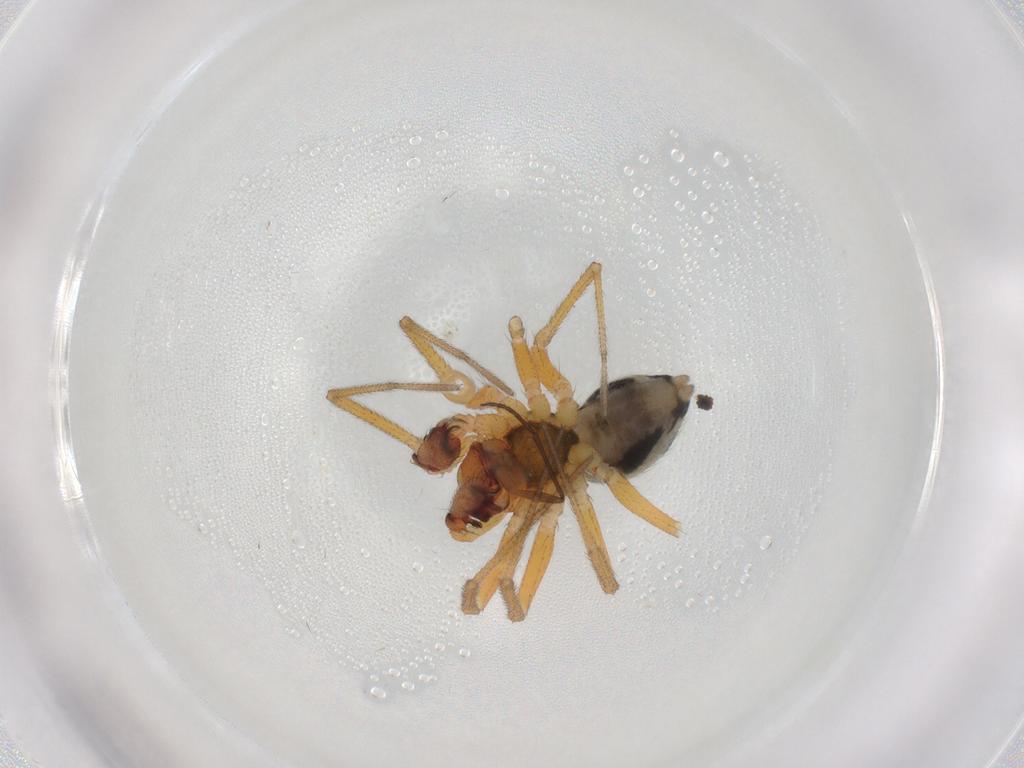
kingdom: Animalia
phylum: Arthropoda
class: Arachnida
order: Araneae
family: Linyphiidae
